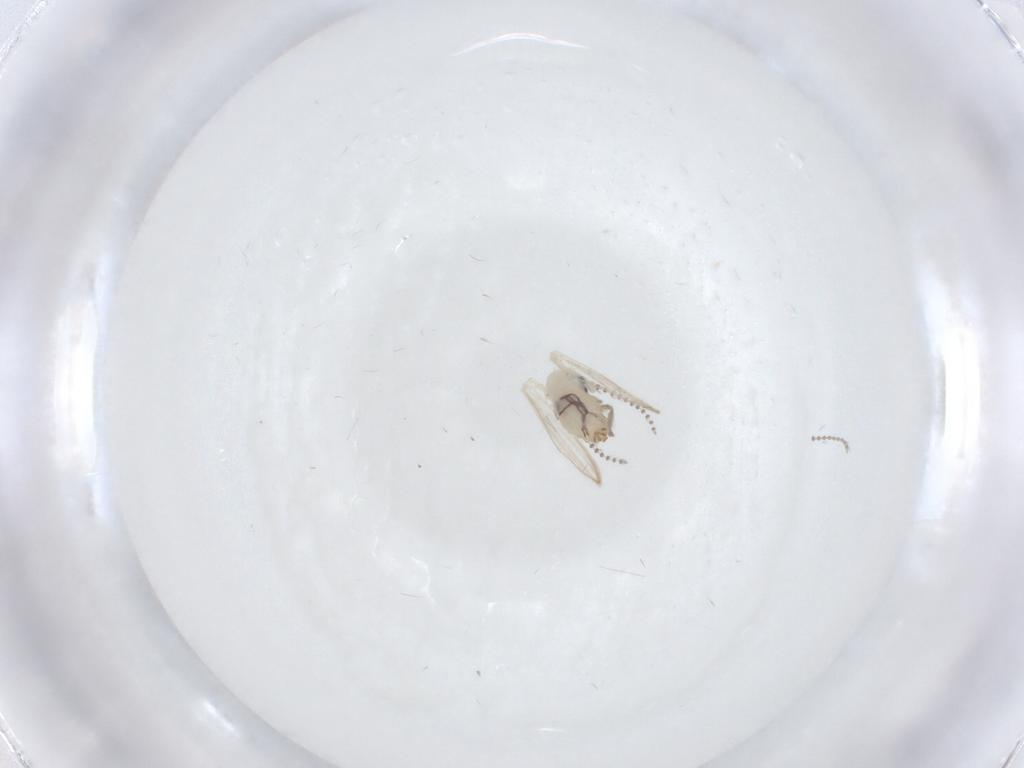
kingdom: Animalia
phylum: Arthropoda
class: Insecta
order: Diptera
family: Psychodidae
